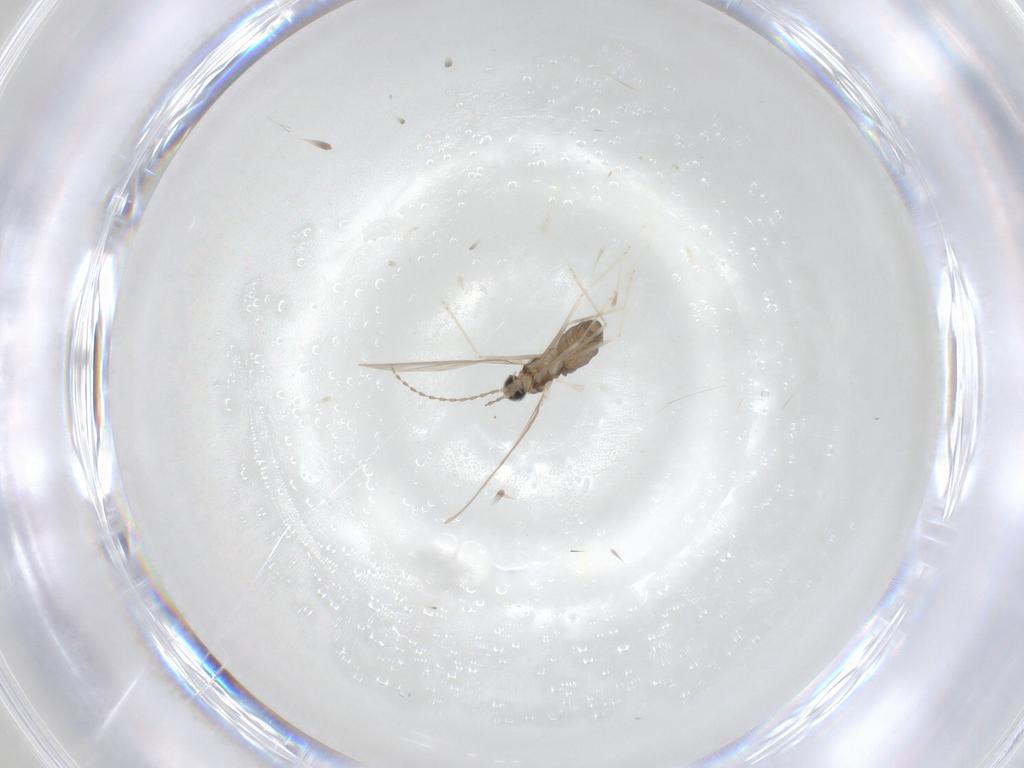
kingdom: Animalia
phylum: Arthropoda
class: Insecta
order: Diptera
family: Cecidomyiidae
